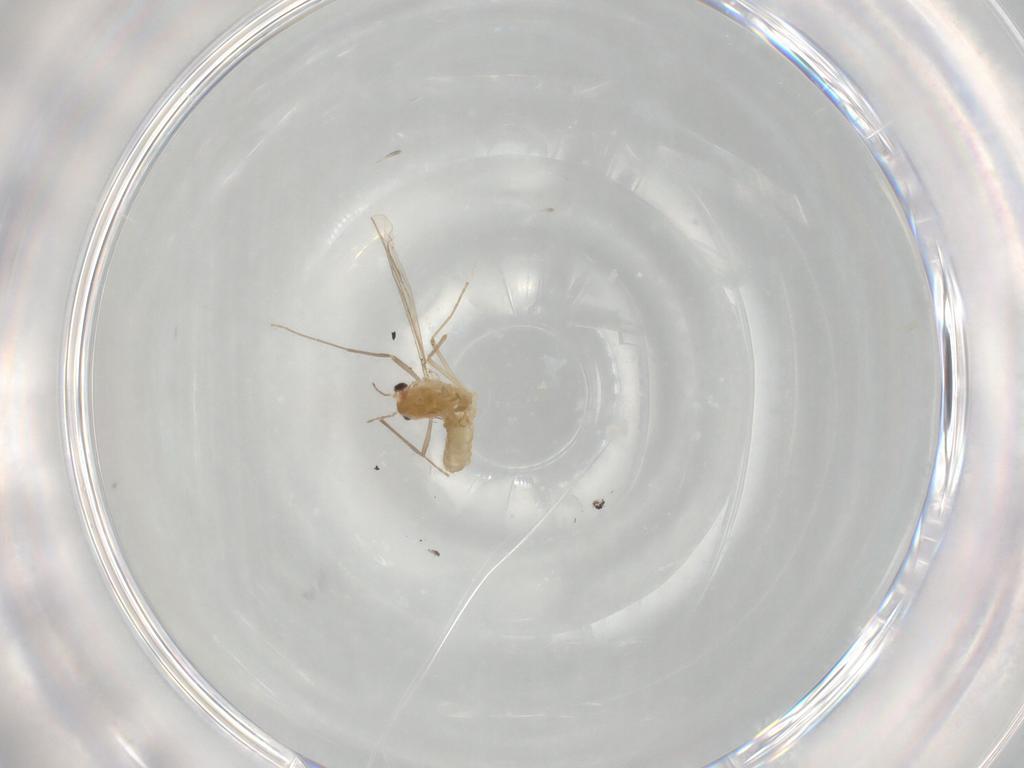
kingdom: Animalia
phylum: Arthropoda
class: Insecta
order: Diptera
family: Chironomidae
